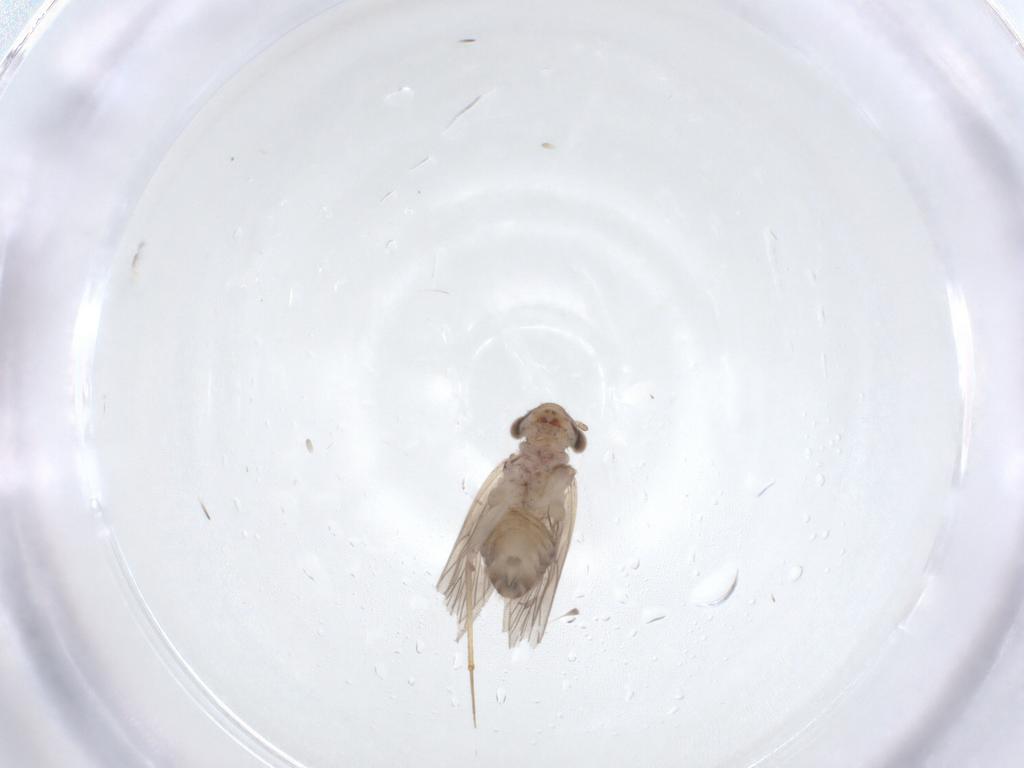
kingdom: Animalia
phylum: Arthropoda
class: Insecta
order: Psocodea
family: Lepidopsocidae
